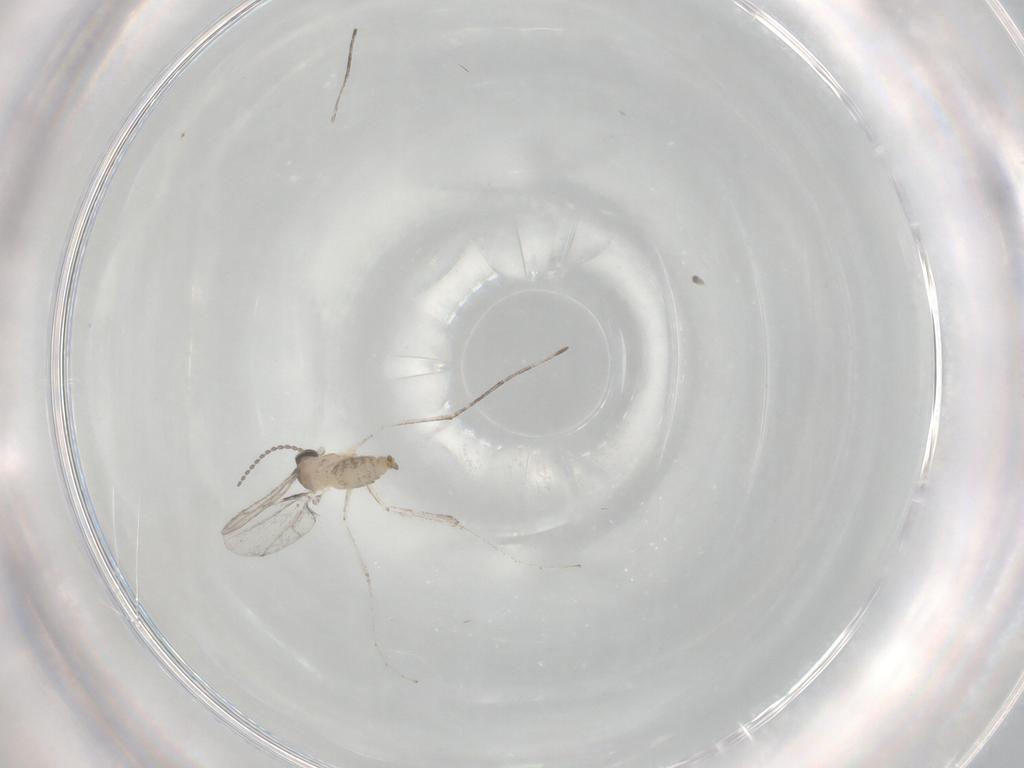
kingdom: Animalia
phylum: Arthropoda
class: Insecta
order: Diptera
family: Cecidomyiidae
